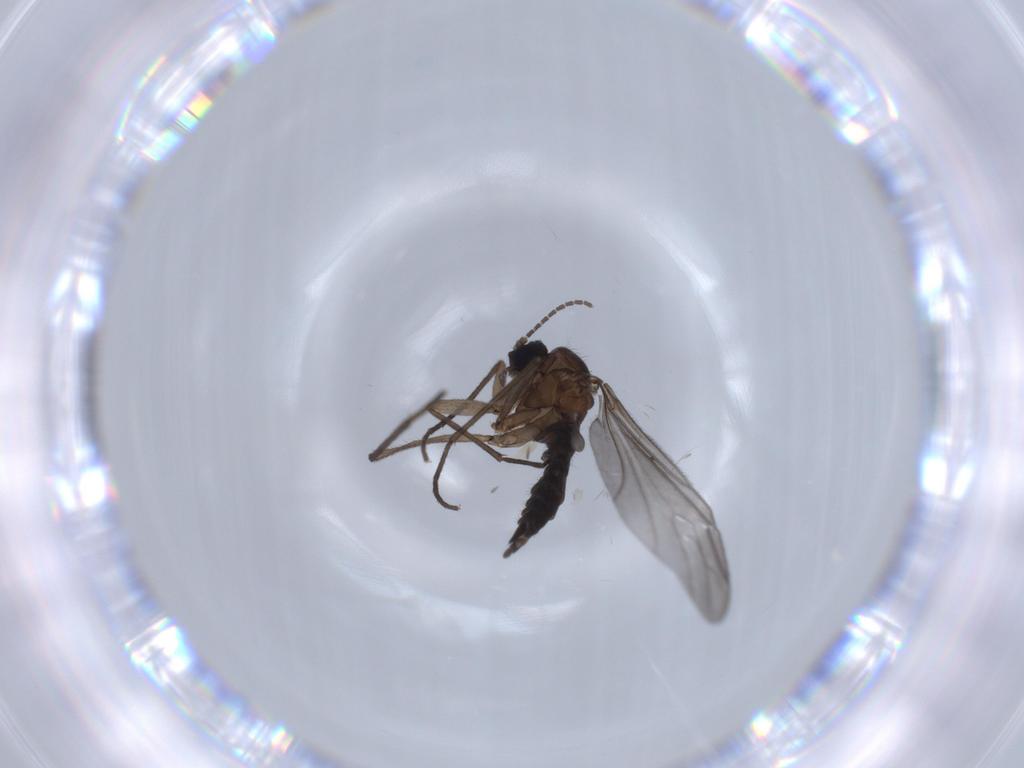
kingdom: Animalia
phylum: Arthropoda
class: Insecta
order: Diptera
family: Sciaridae
